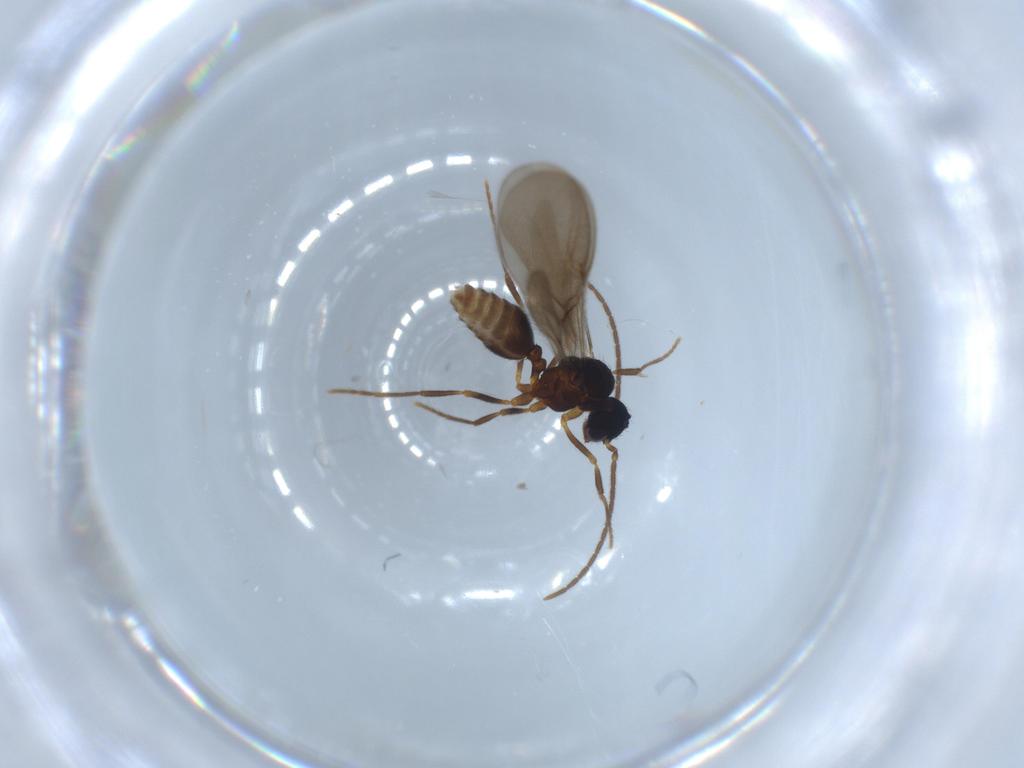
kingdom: Animalia
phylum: Arthropoda
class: Insecta
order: Hymenoptera
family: Formicidae
